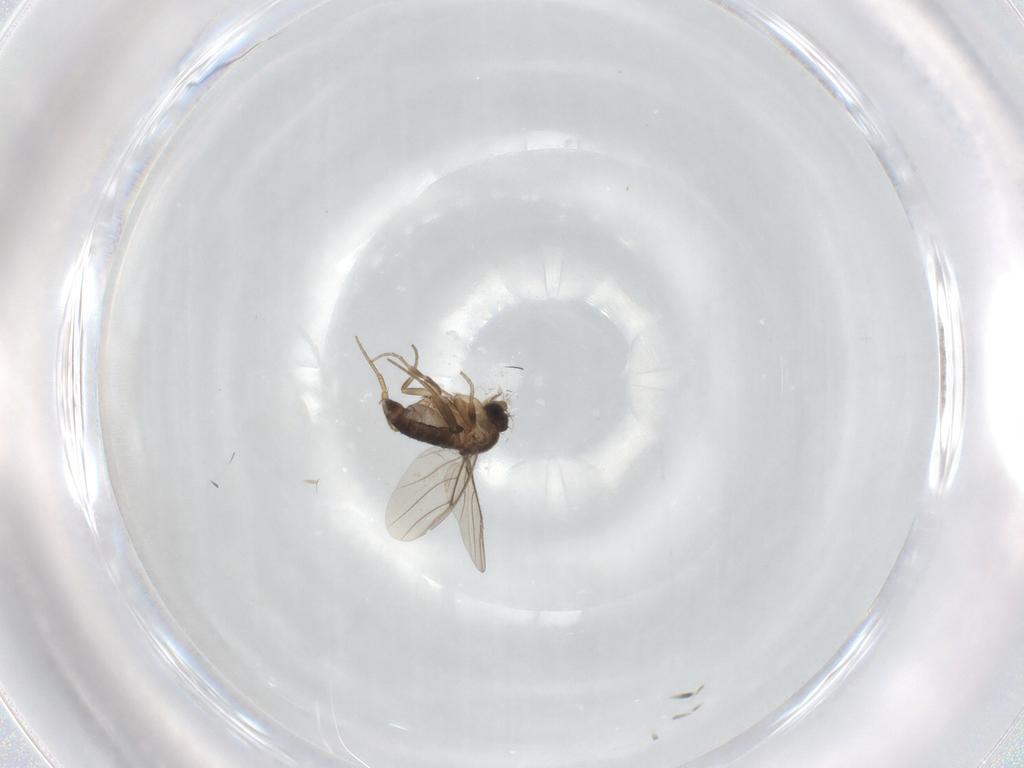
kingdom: Animalia
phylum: Arthropoda
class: Insecta
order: Diptera
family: Phoridae
